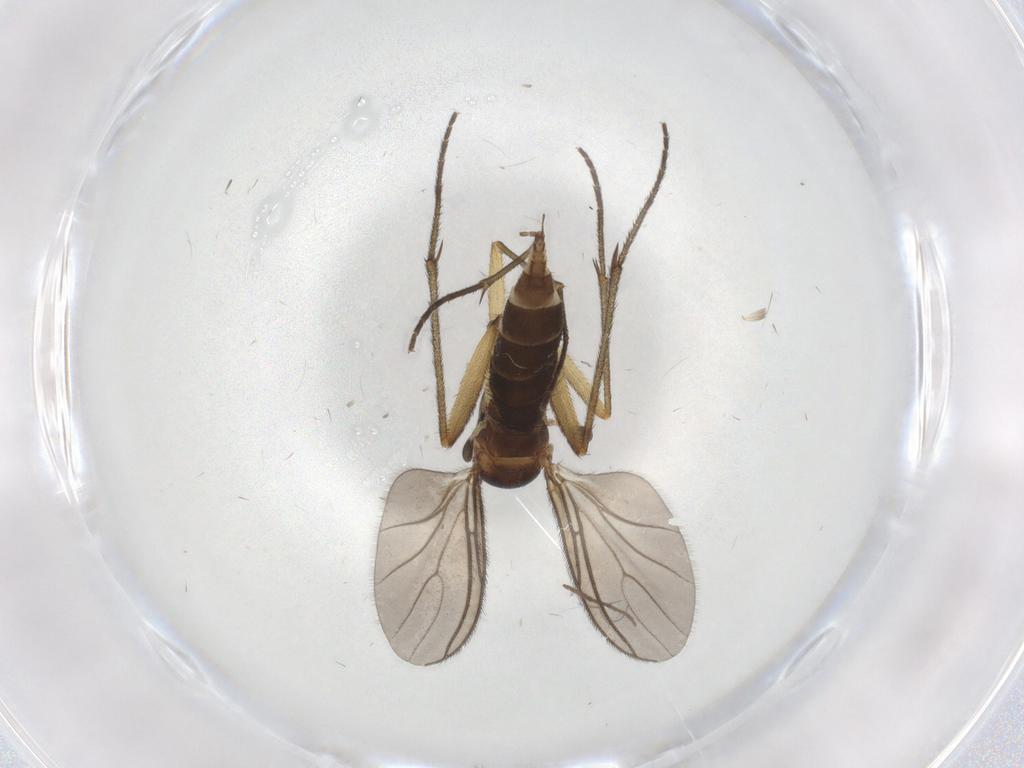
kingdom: Animalia
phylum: Arthropoda
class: Insecta
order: Diptera
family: Sciaridae
